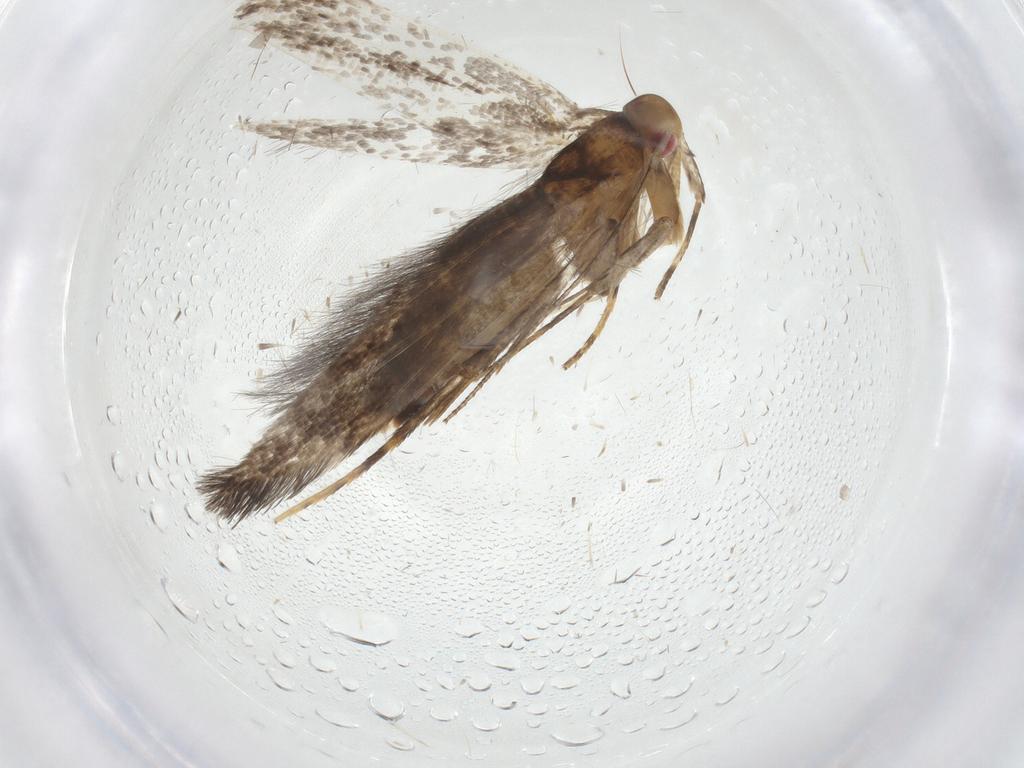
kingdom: Animalia
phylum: Arthropoda
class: Insecta
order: Lepidoptera
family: Cosmopterigidae
